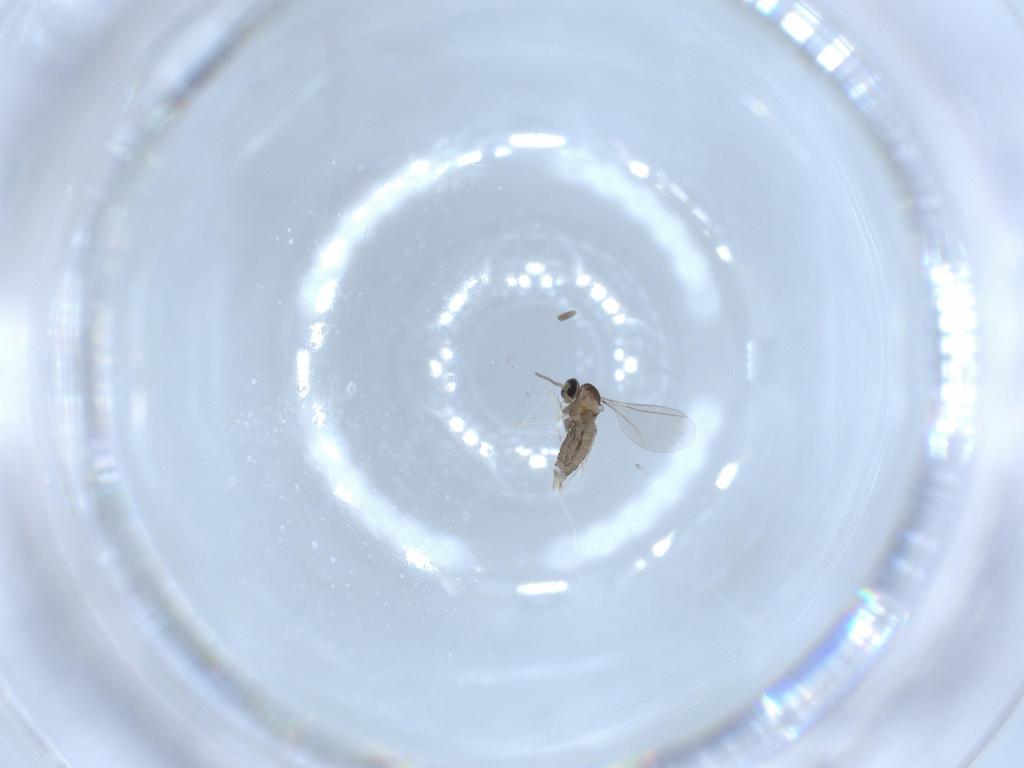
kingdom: Animalia
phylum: Arthropoda
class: Insecta
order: Diptera
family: Cecidomyiidae
